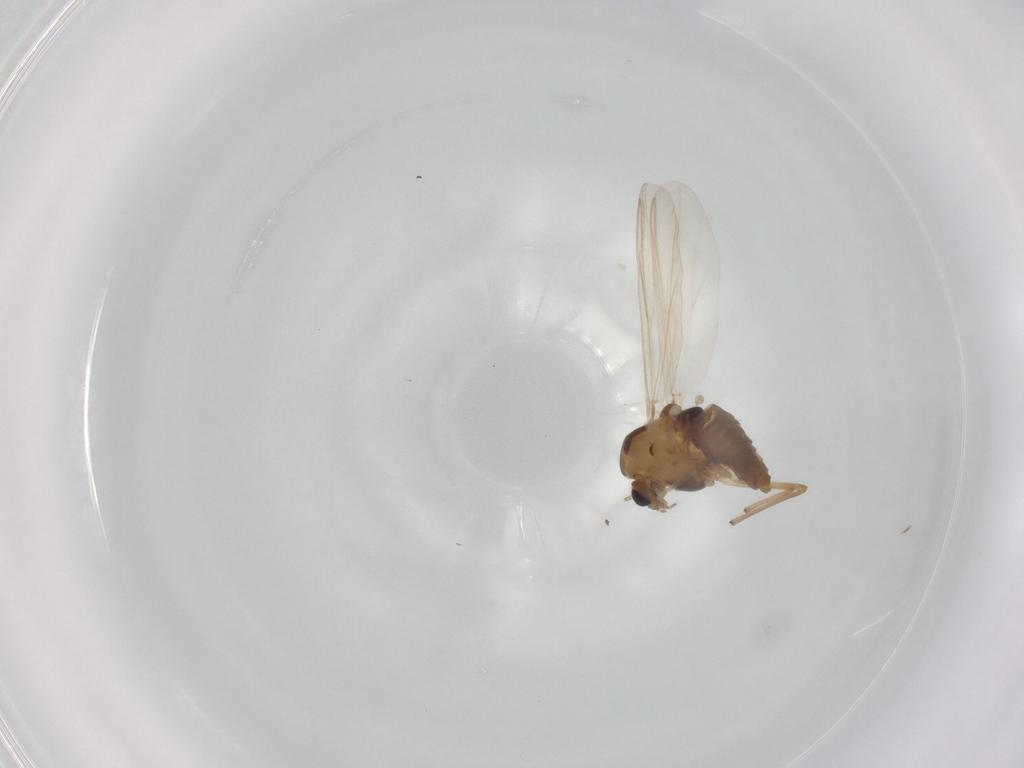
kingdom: Animalia
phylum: Arthropoda
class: Insecta
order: Diptera
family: Chironomidae
